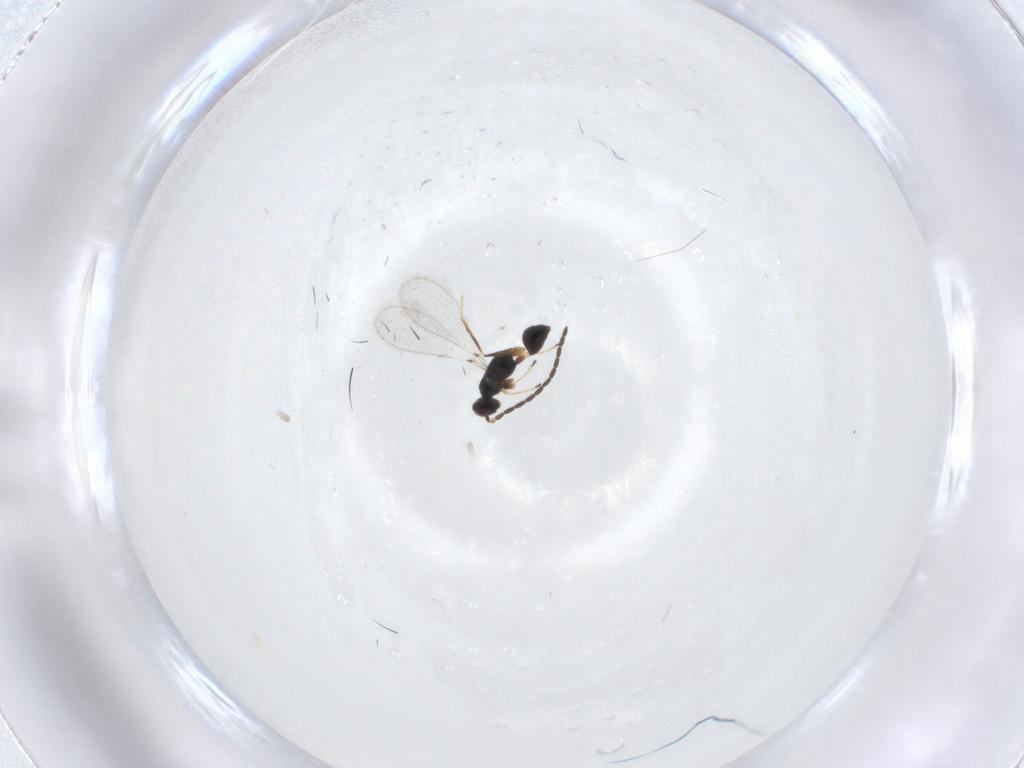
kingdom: Animalia
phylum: Arthropoda
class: Insecta
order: Hymenoptera
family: Mymaridae
